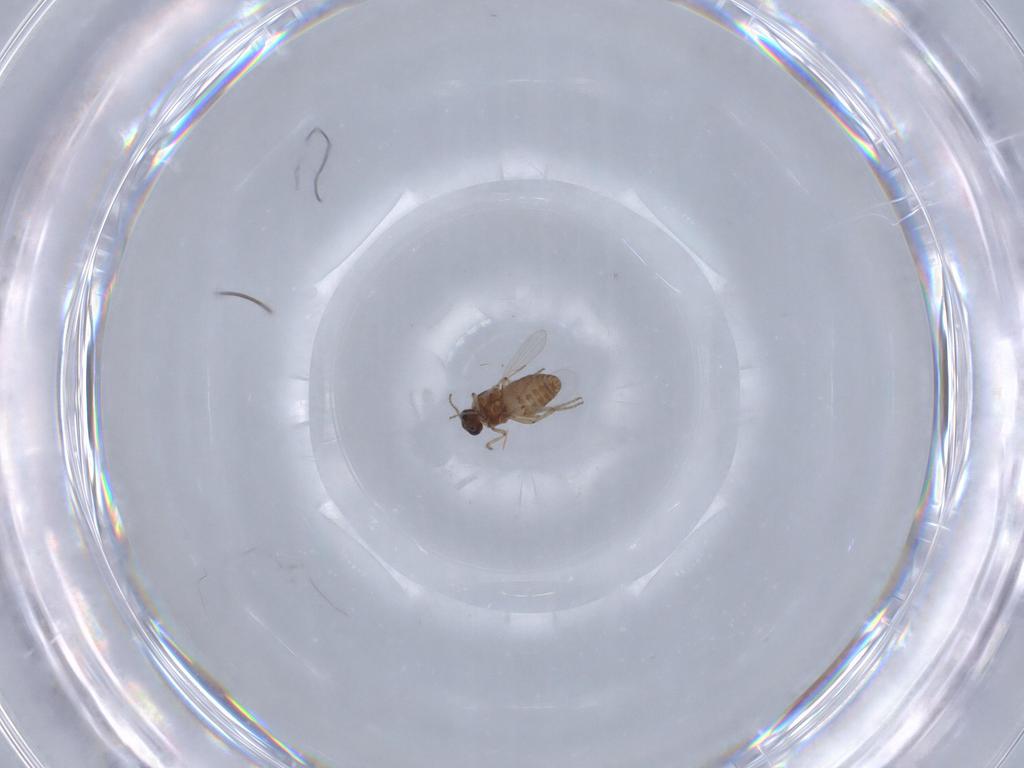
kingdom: Animalia
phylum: Arthropoda
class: Insecta
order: Diptera
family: Ceratopogonidae
